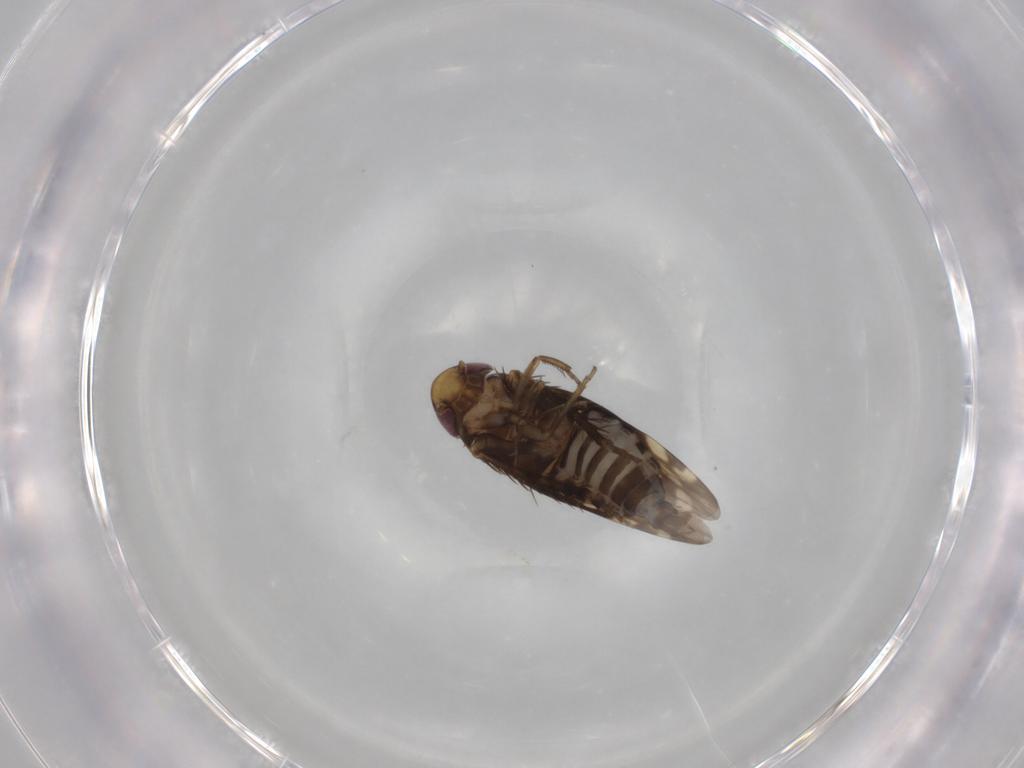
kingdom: Animalia
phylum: Arthropoda
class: Insecta
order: Hemiptera
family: Cicadellidae
